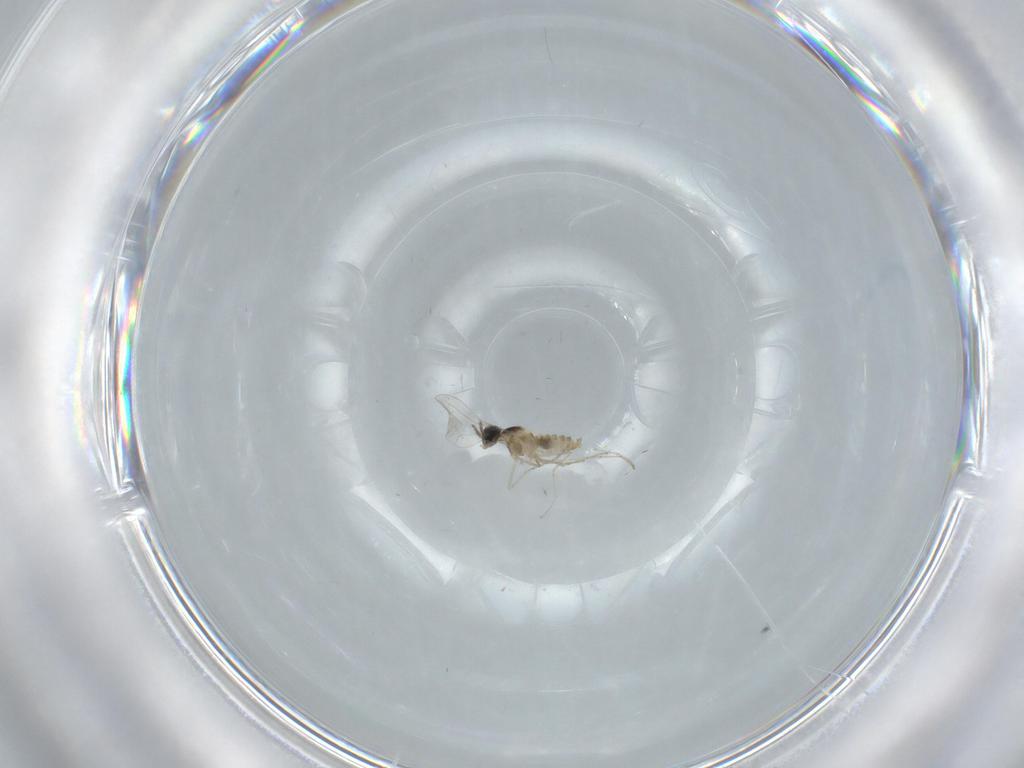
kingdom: Animalia
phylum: Arthropoda
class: Insecta
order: Diptera
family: Cecidomyiidae
